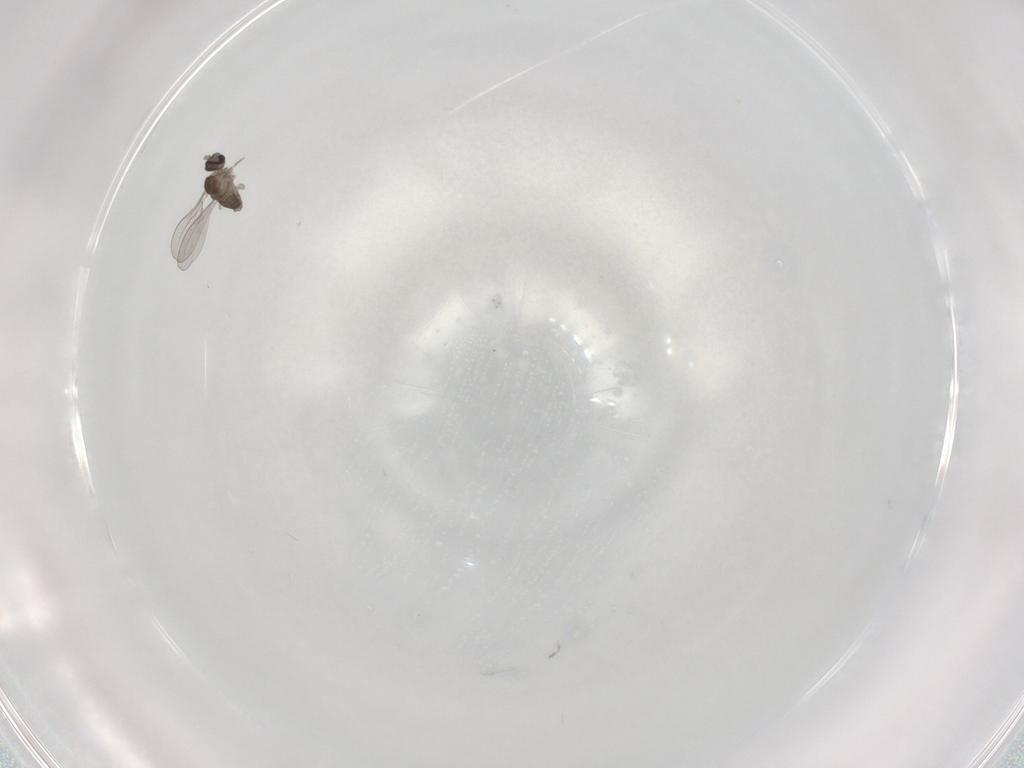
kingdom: Animalia
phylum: Arthropoda
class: Insecta
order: Diptera
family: Cecidomyiidae
